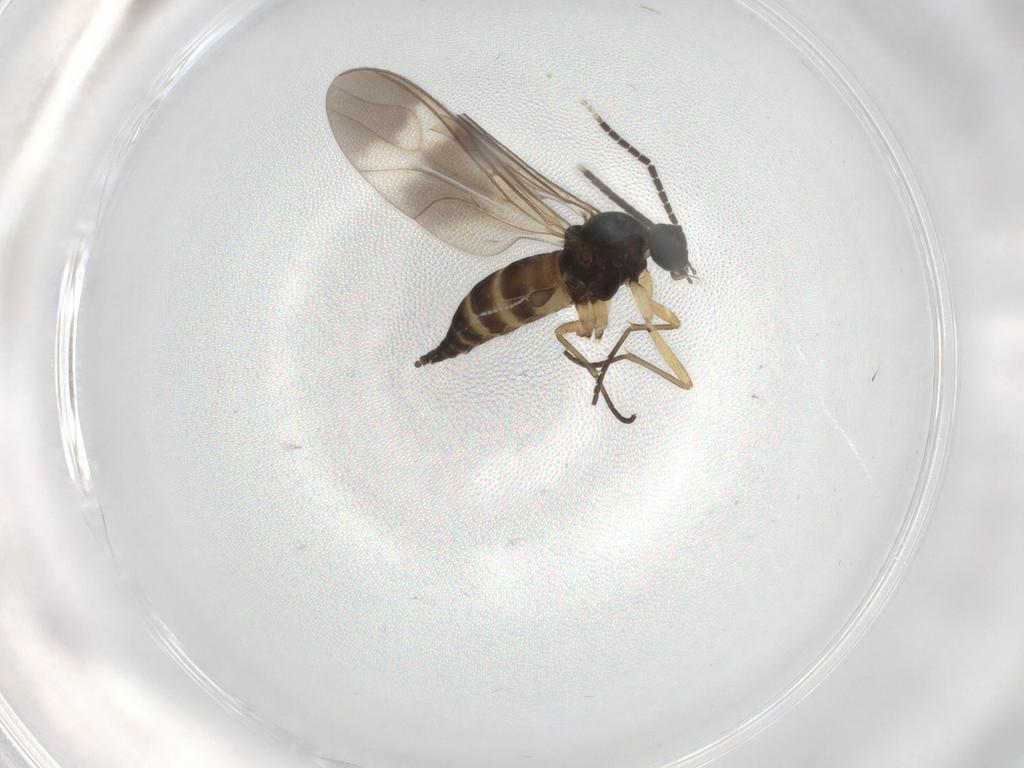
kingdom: Animalia
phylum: Arthropoda
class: Insecta
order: Diptera
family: Sciaridae
